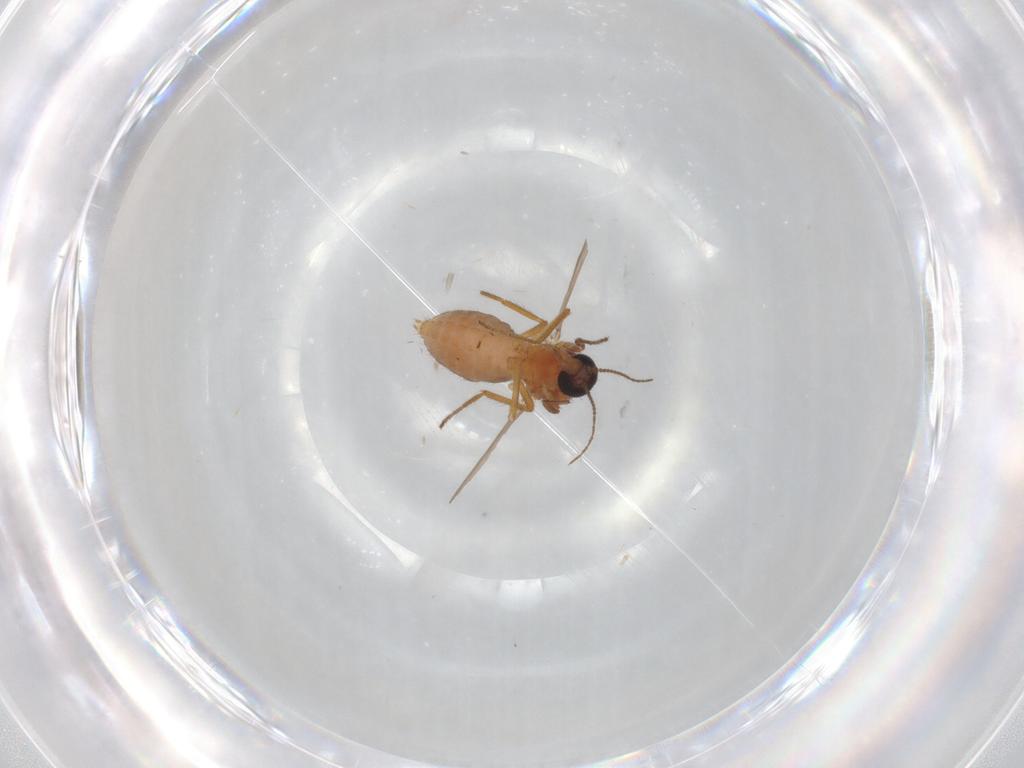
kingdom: Animalia
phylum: Arthropoda
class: Insecta
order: Diptera
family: Ceratopogonidae
